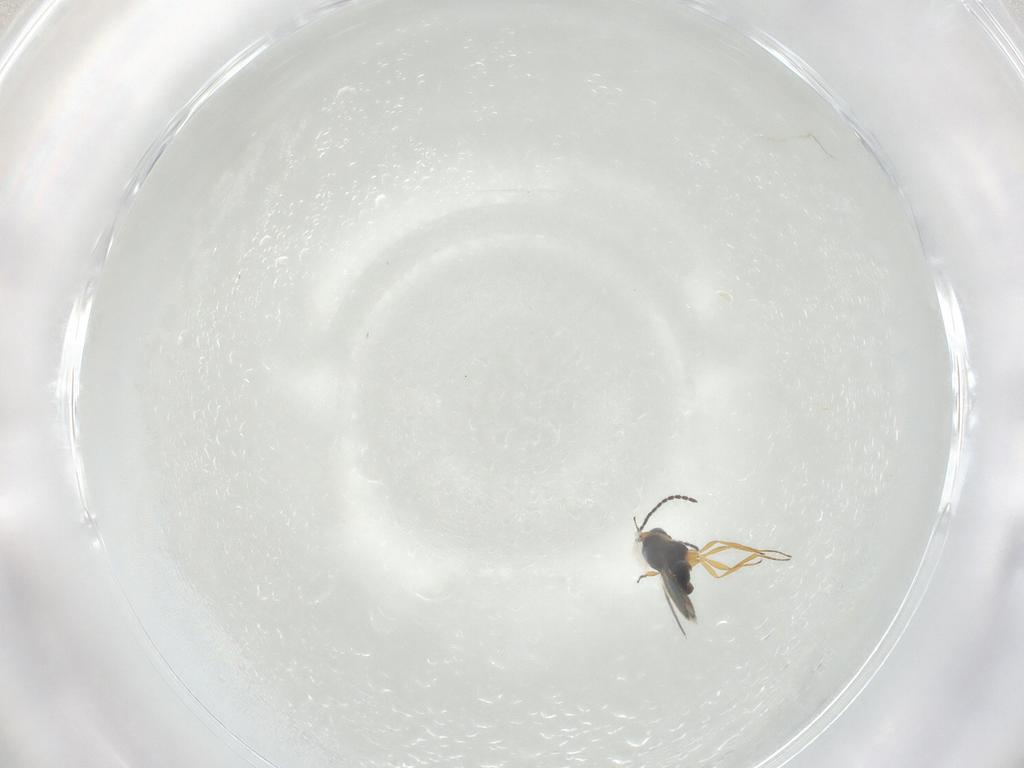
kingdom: Animalia
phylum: Arthropoda
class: Insecta
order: Hymenoptera
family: Scelionidae
